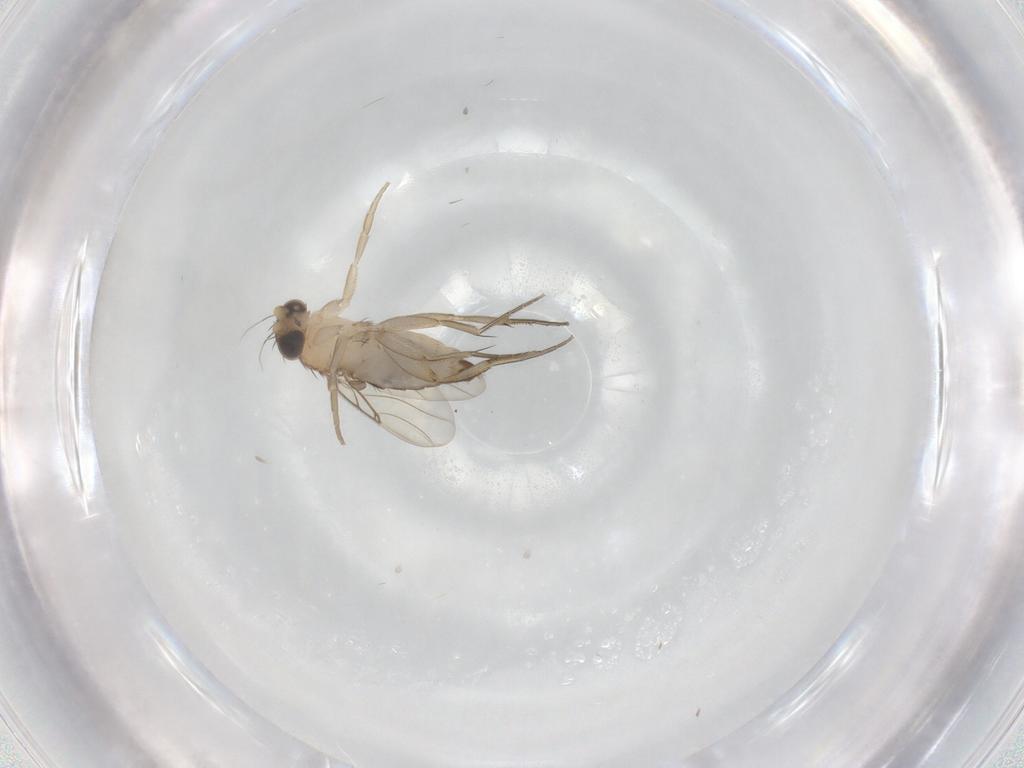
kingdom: Animalia
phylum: Arthropoda
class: Insecta
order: Diptera
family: Phoridae
